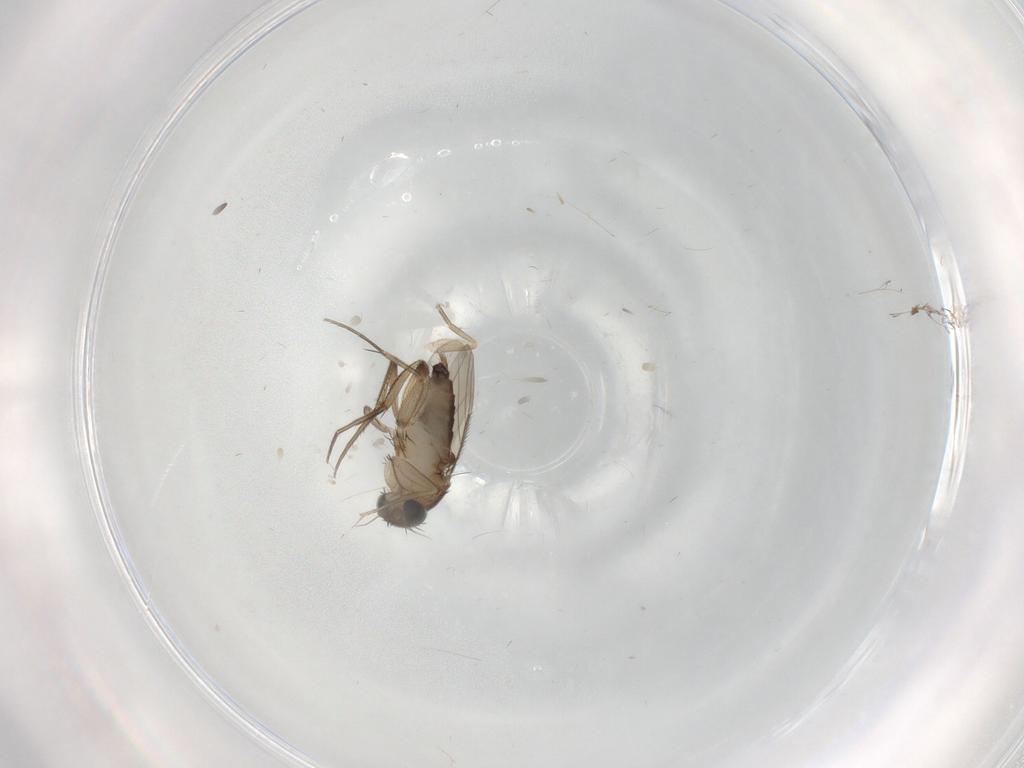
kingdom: Animalia
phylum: Arthropoda
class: Insecta
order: Diptera
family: Phoridae
